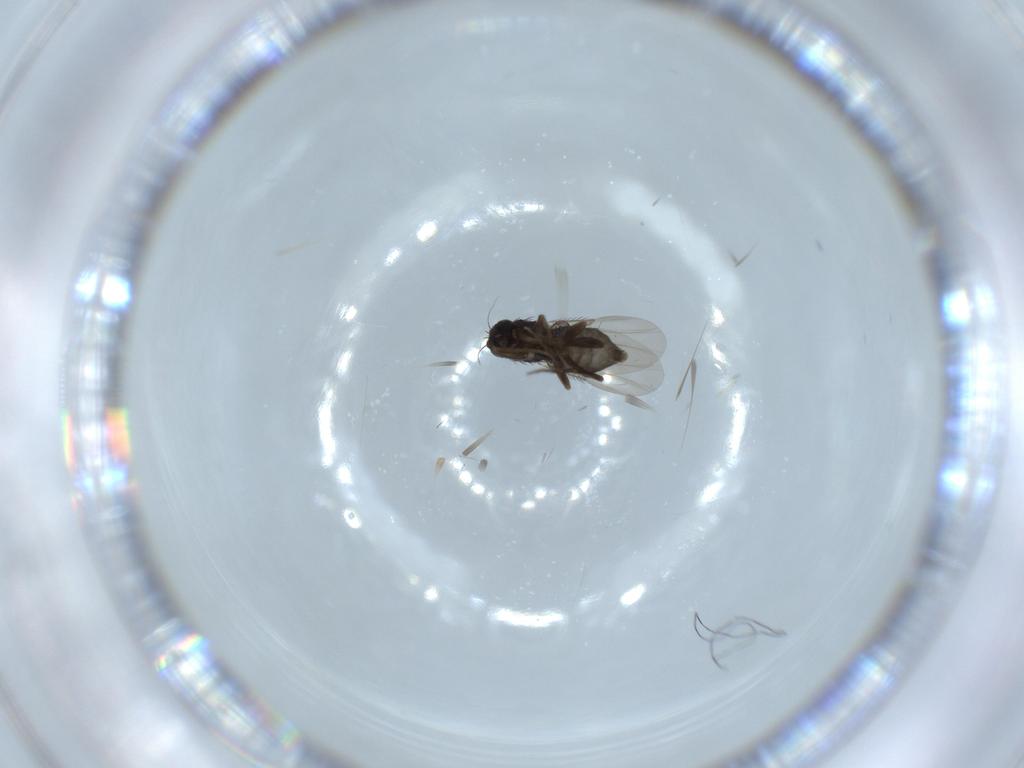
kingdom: Animalia
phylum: Arthropoda
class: Insecta
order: Diptera
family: Phoridae
